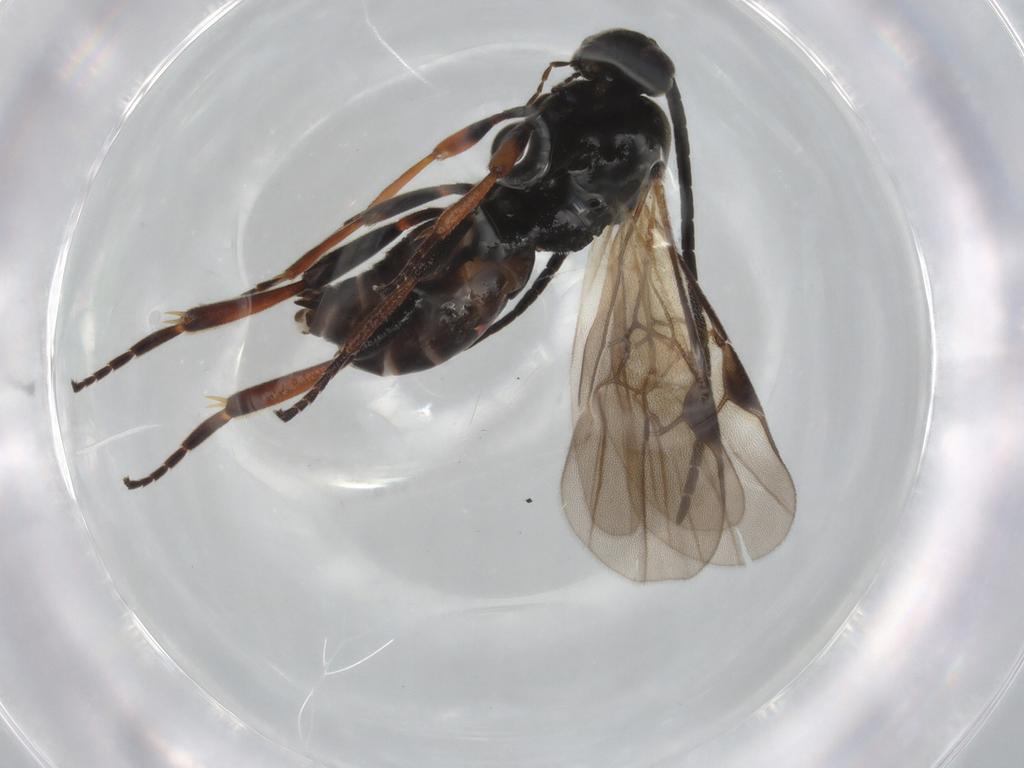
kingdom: Animalia
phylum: Arthropoda
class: Insecta
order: Hymenoptera
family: Braconidae
